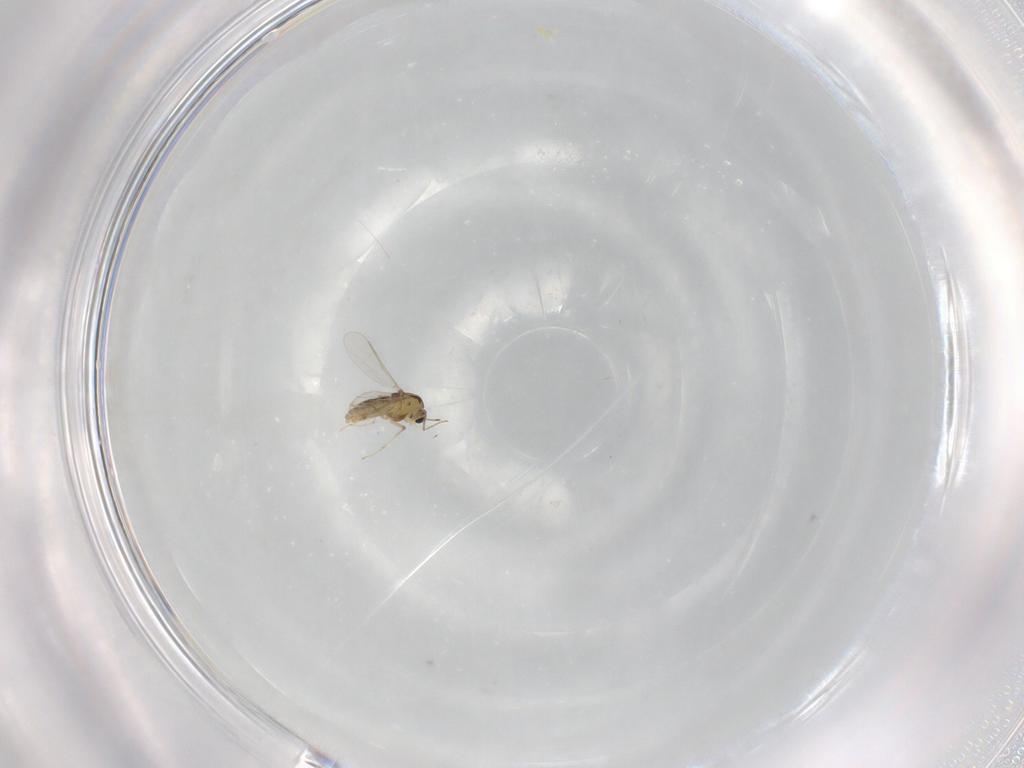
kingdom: Animalia
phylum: Arthropoda
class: Insecta
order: Diptera
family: Chironomidae
